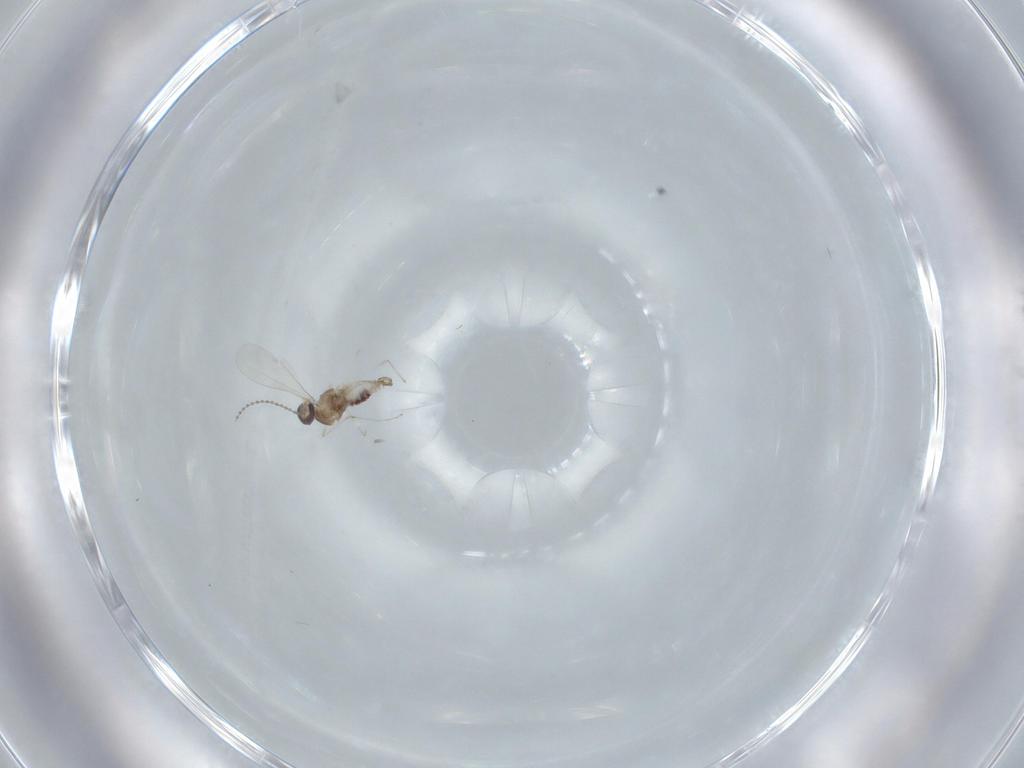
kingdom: Animalia
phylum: Arthropoda
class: Insecta
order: Diptera
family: Cecidomyiidae
